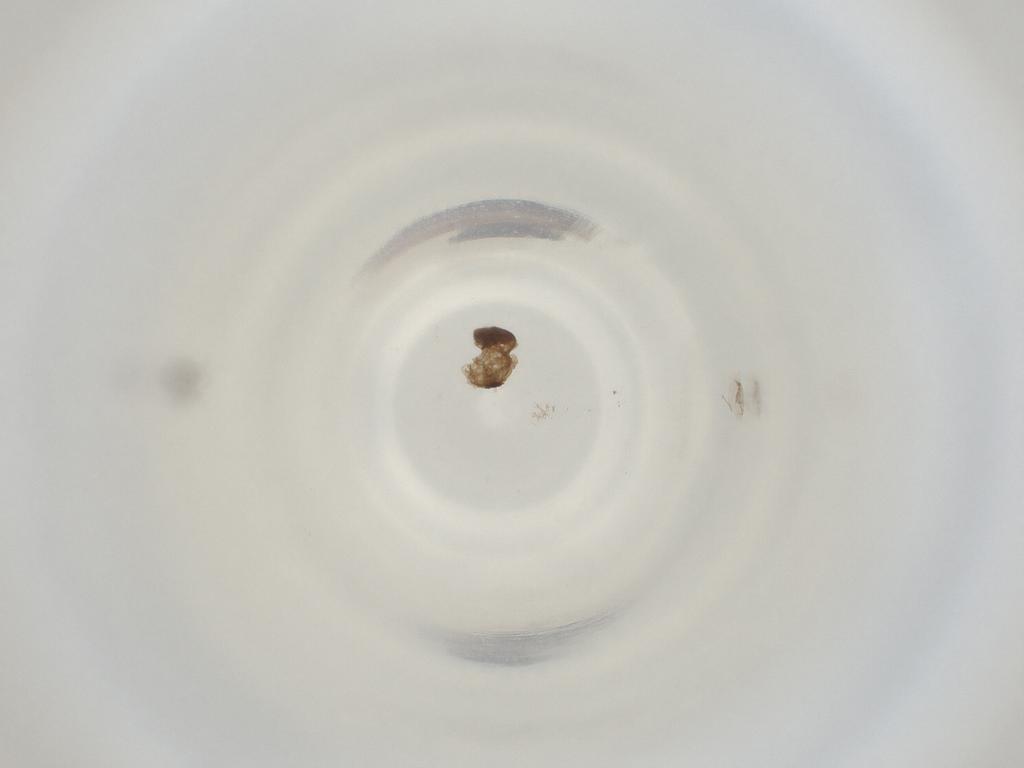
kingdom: Animalia
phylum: Arthropoda
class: Insecta
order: Diptera
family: Cecidomyiidae
